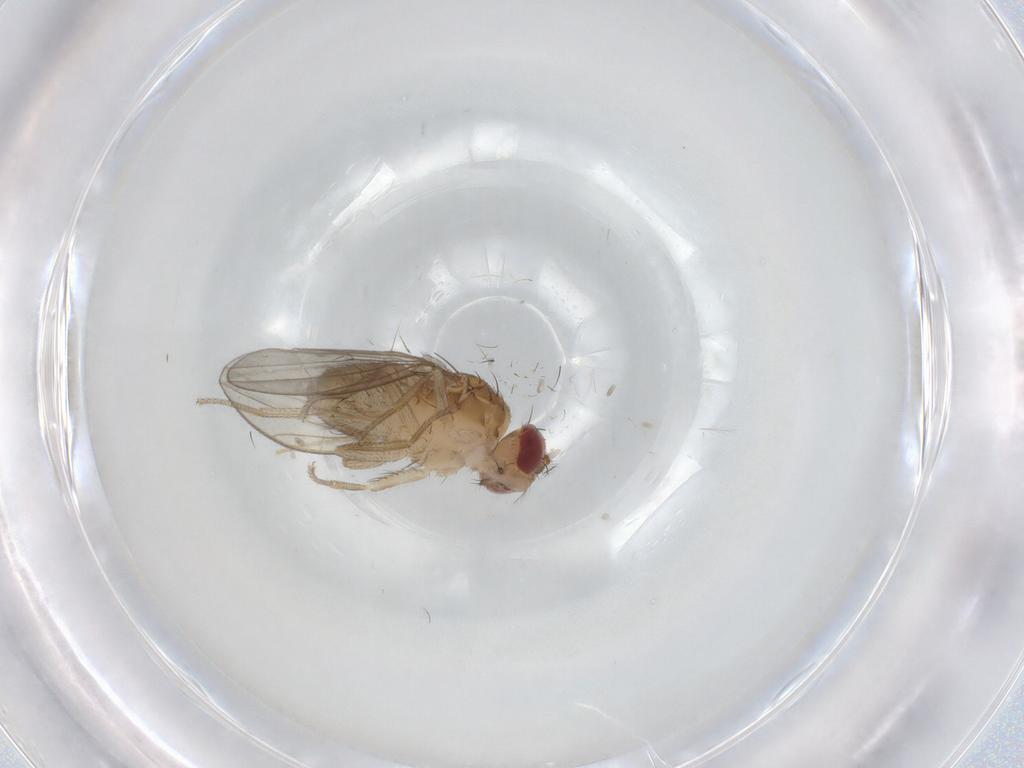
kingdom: Animalia
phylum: Arthropoda
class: Insecta
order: Diptera
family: Drosophilidae
